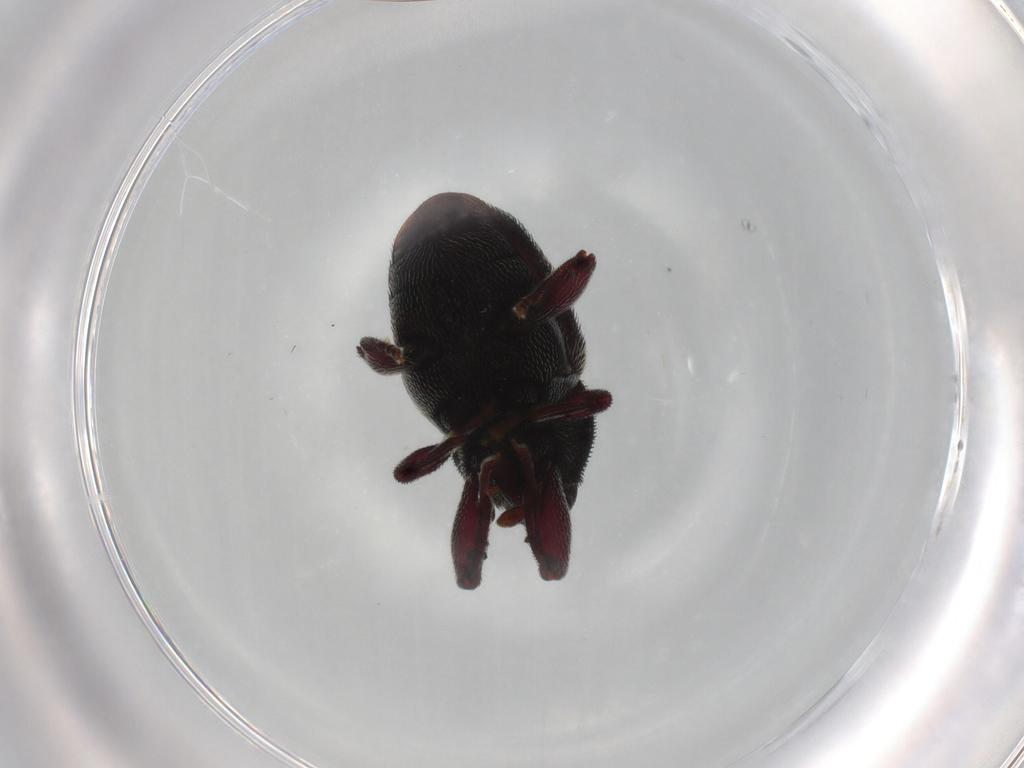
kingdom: Animalia
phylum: Arthropoda
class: Insecta
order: Coleoptera
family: Curculionidae
